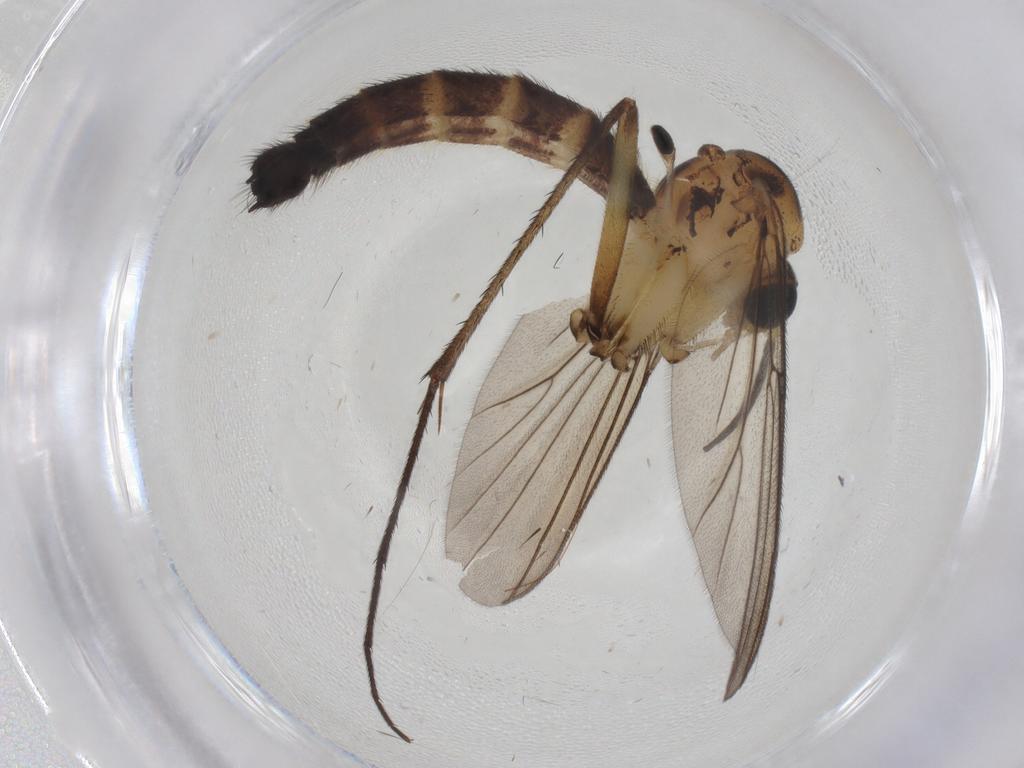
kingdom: Animalia
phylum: Arthropoda
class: Insecta
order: Diptera
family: Cecidomyiidae
